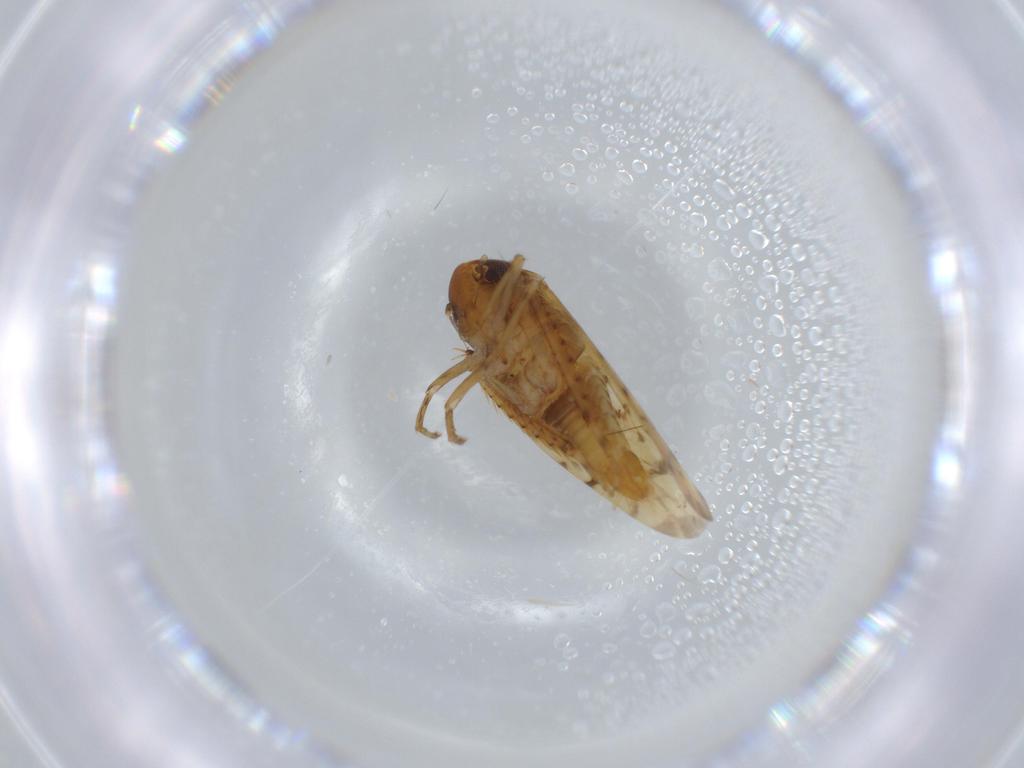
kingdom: Animalia
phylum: Arthropoda
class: Insecta
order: Hemiptera
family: Cicadellidae
